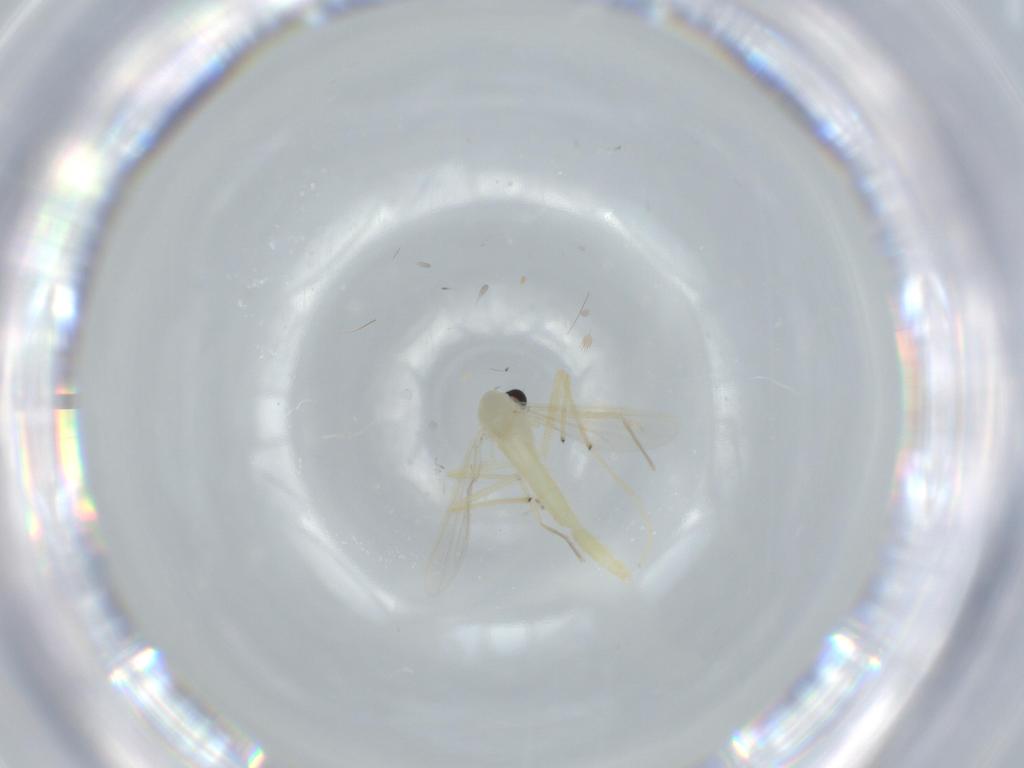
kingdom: Animalia
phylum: Arthropoda
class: Insecta
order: Diptera
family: Chironomidae
